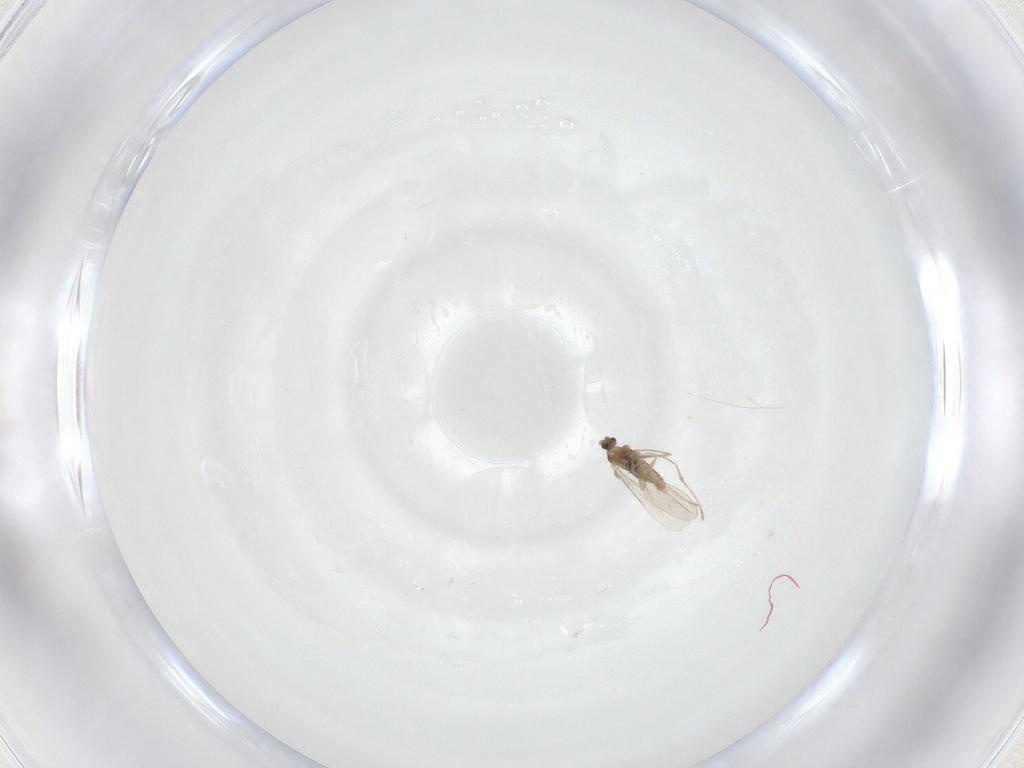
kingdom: Animalia
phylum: Arthropoda
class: Insecta
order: Diptera
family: Cecidomyiidae
